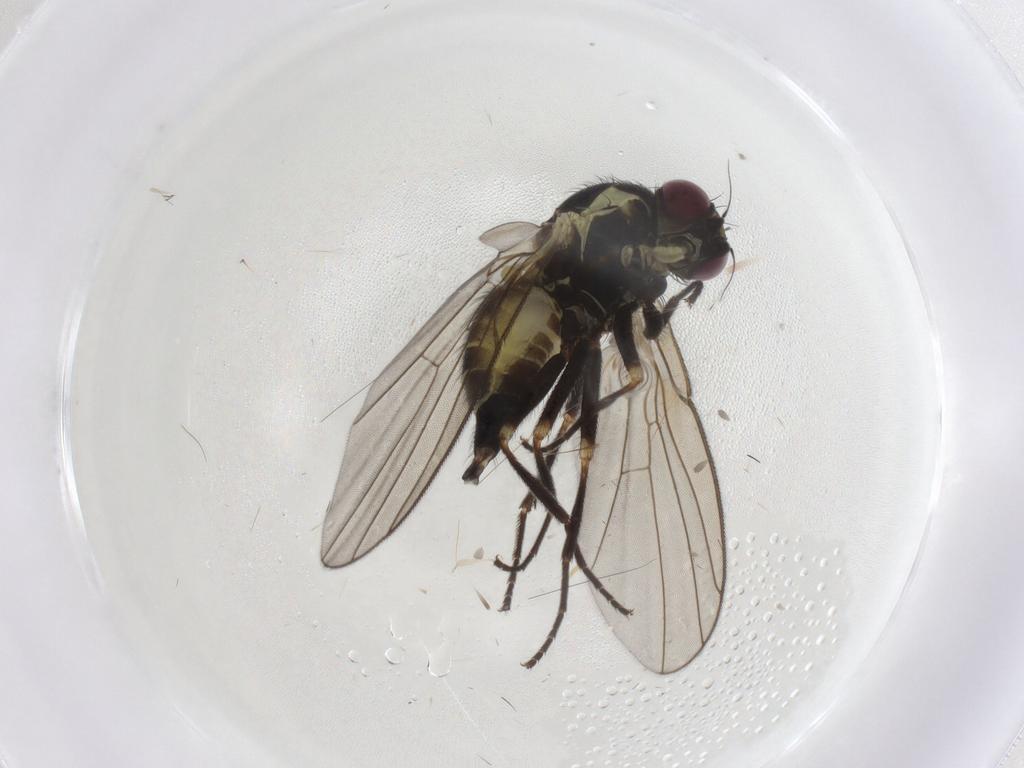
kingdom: Animalia
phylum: Arthropoda
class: Insecta
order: Diptera
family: Agromyzidae
